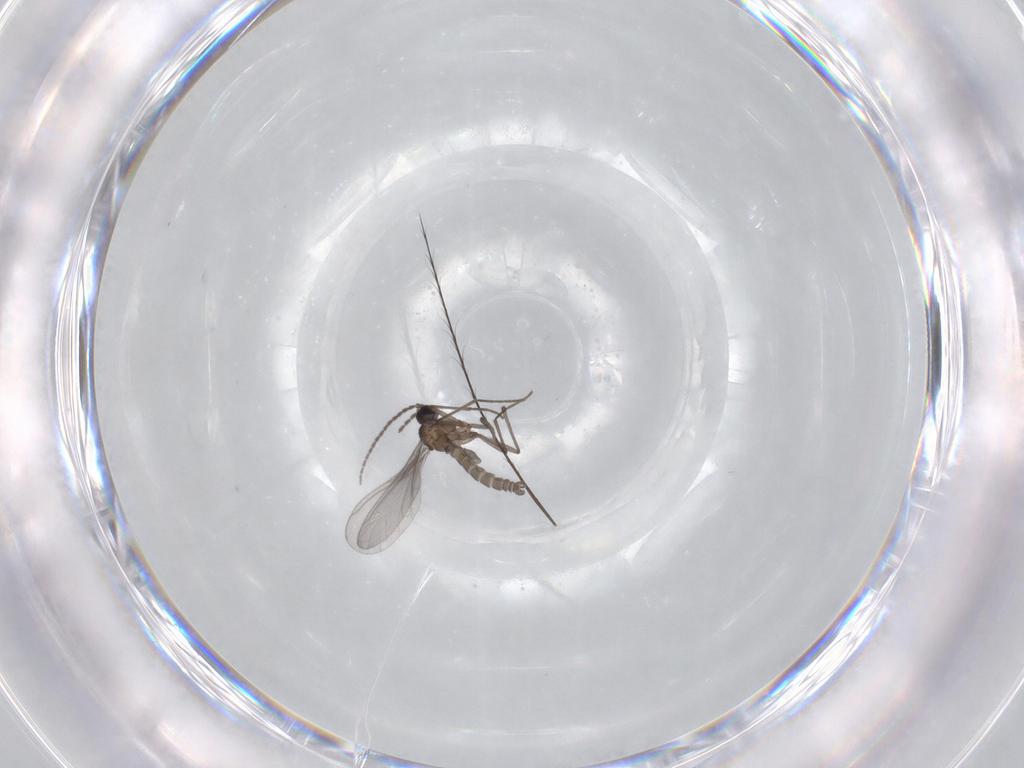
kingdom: Animalia
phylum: Arthropoda
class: Insecta
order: Diptera
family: Sciaridae
